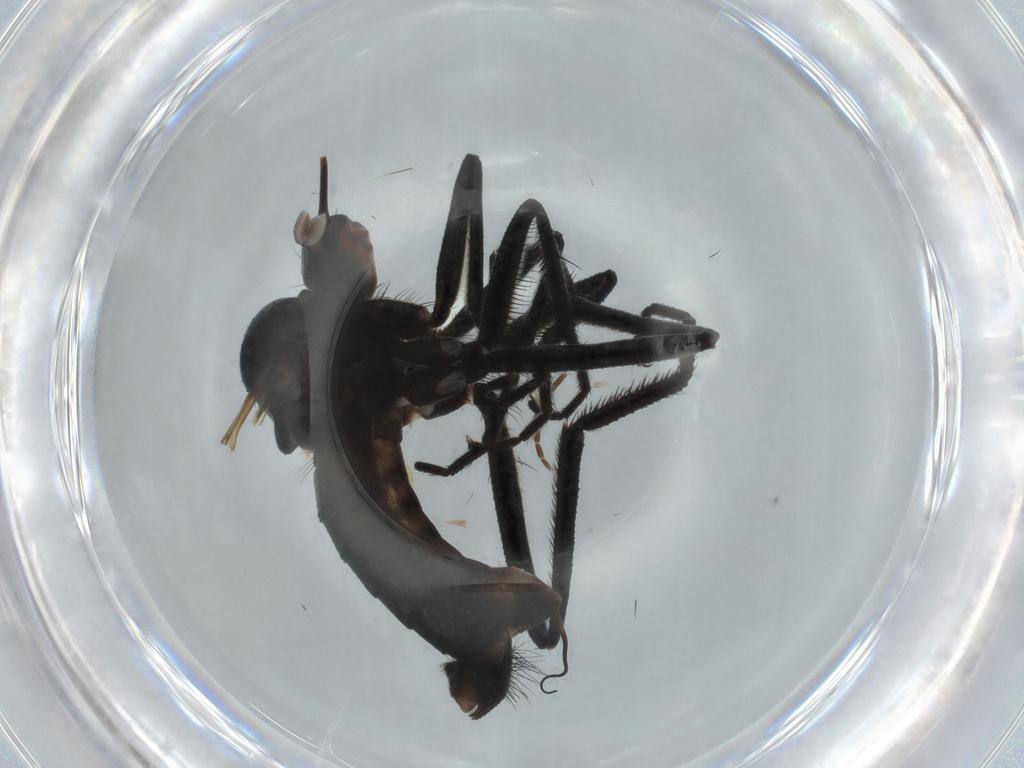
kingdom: Animalia
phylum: Arthropoda
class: Insecta
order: Diptera
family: Empididae
